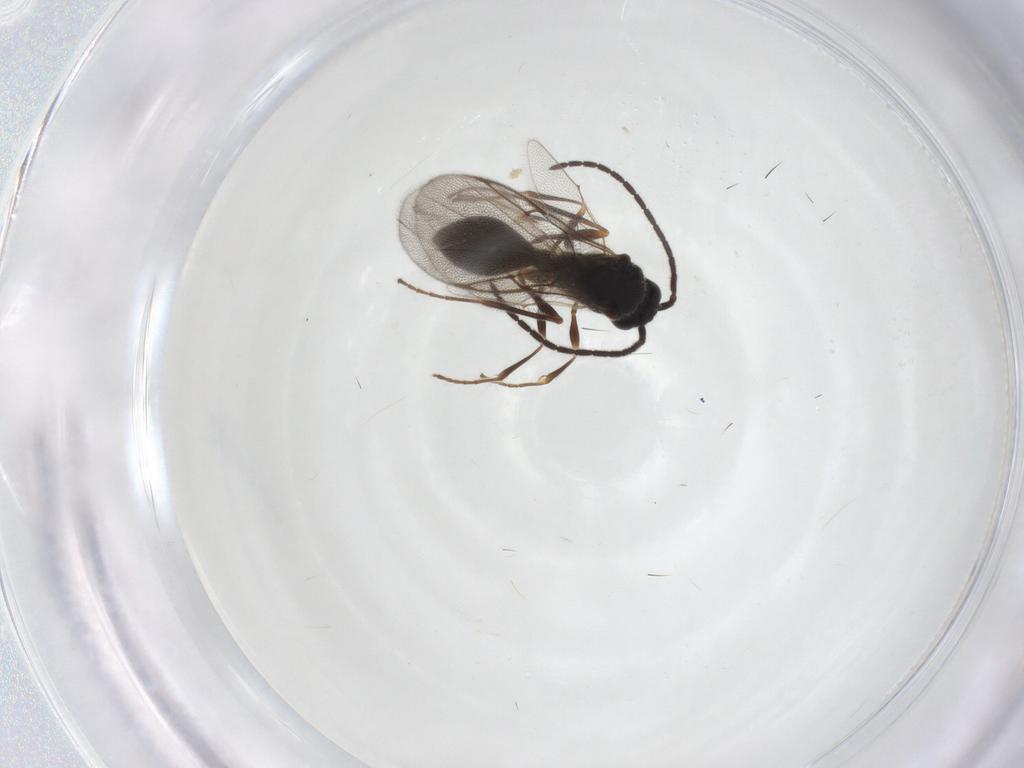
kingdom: Animalia
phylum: Arthropoda
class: Insecta
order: Hymenoptera
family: Diapriidae
